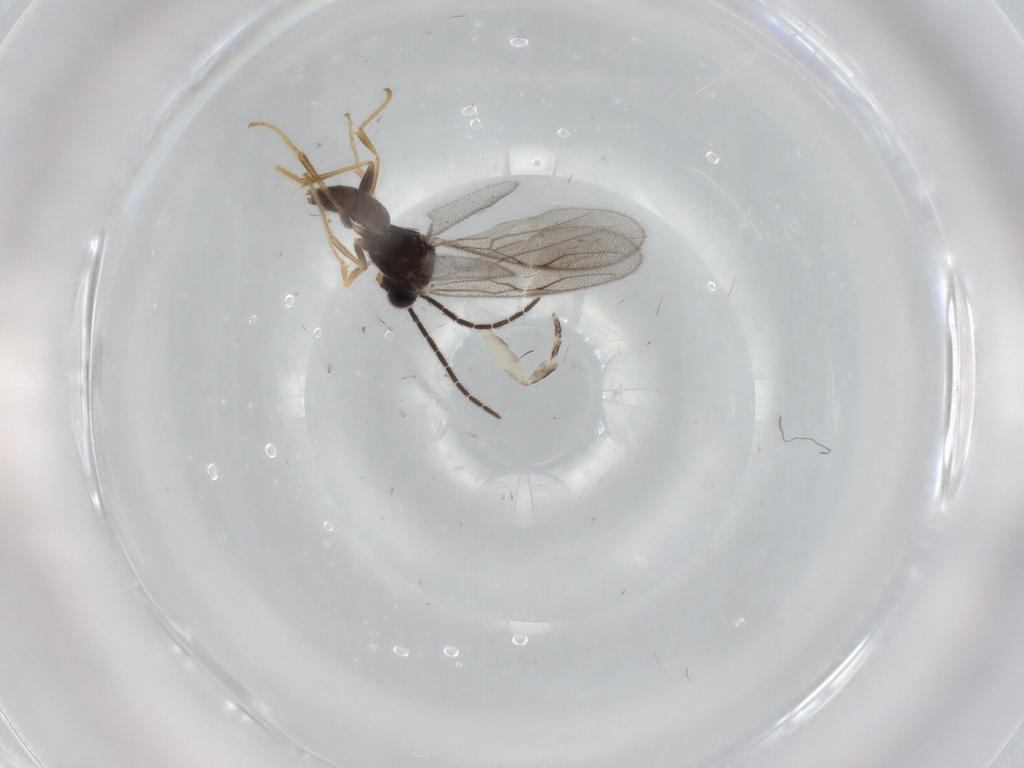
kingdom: Animalia
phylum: Arthropoda
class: Insecta
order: Hymenoptera
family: Dryinidae
